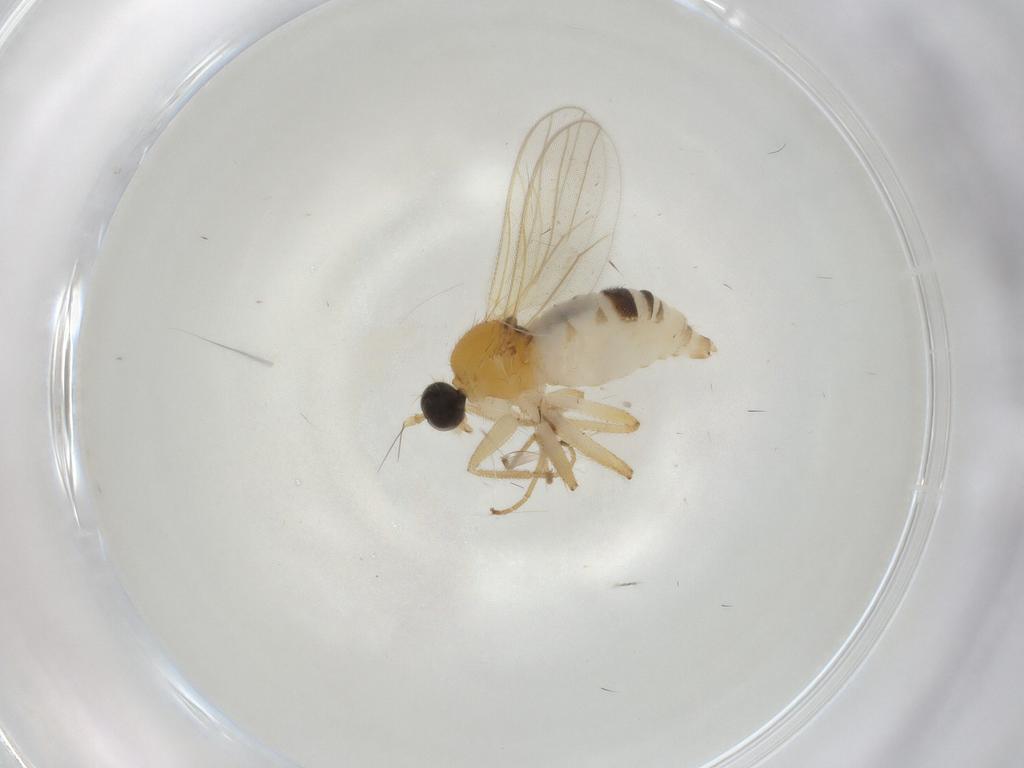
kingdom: Animalia
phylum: Arthropoda
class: Insecta
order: Diptera
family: Hybotidae
